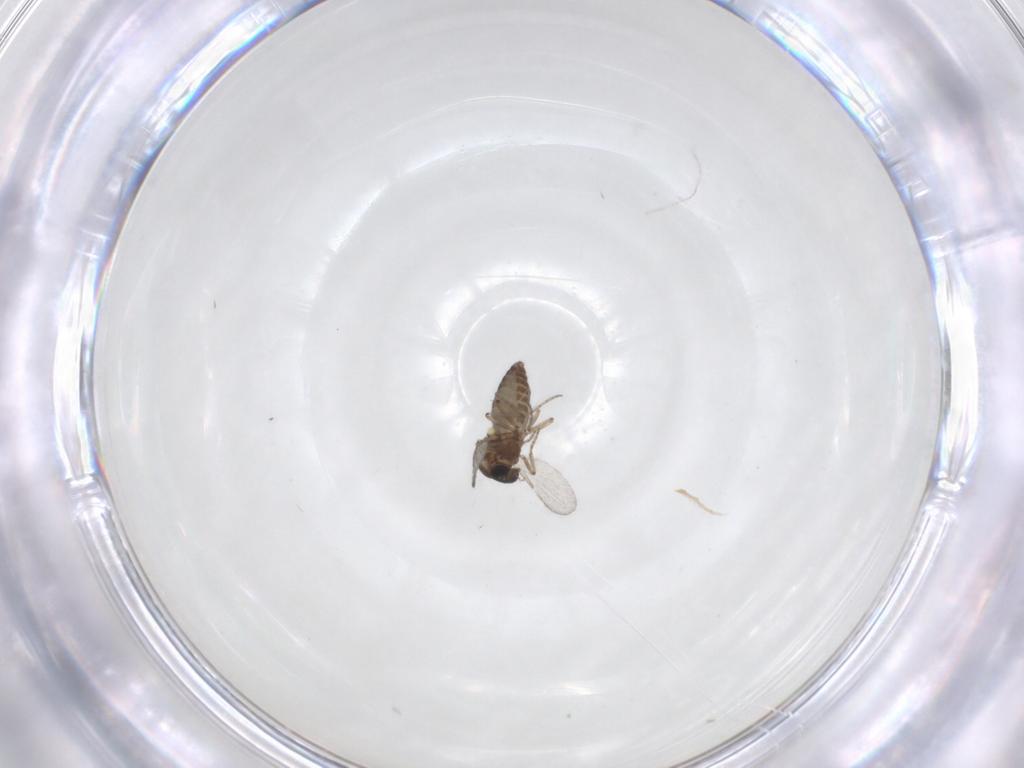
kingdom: Animalia
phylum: Arthropoda
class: Insecta
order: Diptera
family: Ceratopogonidae
